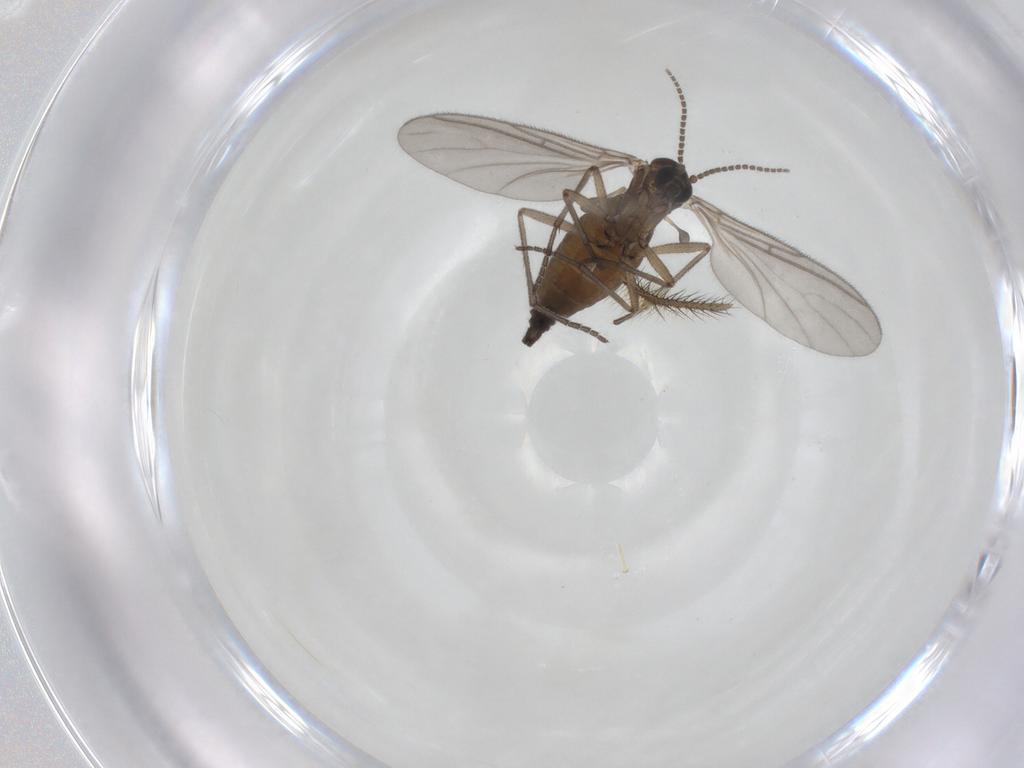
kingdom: Animalia
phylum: Arthropoda
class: Insecta
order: Diptera
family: Sciaridae
